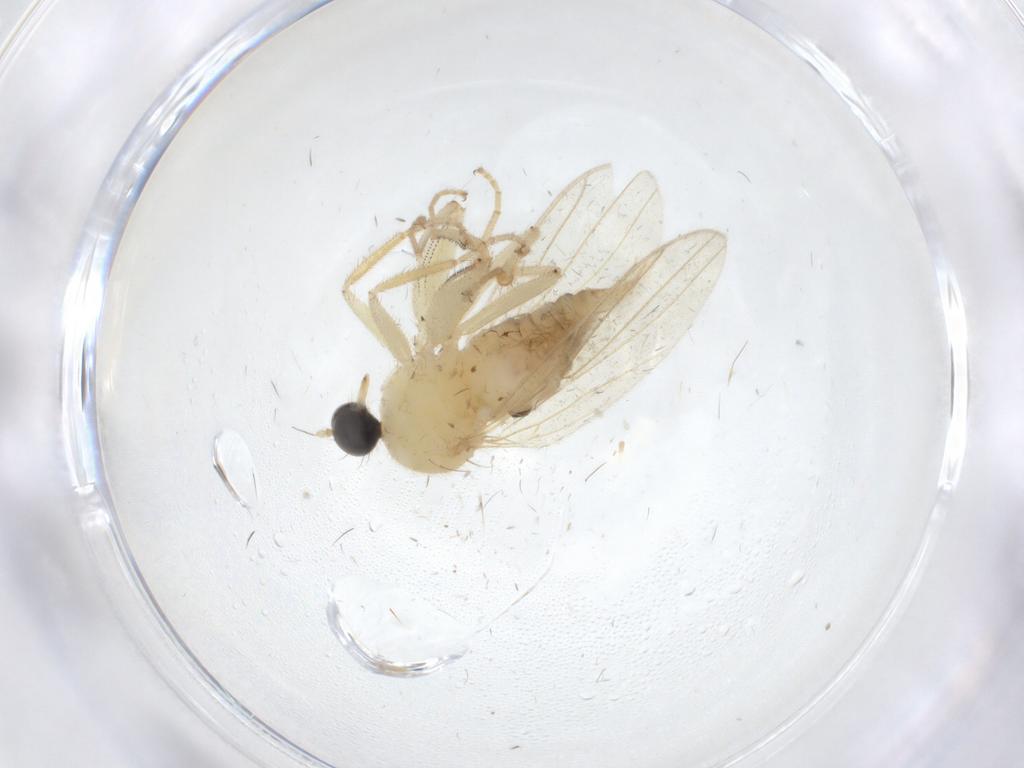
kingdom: Animalia
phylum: Arthropoda
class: Insecta
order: Diptera
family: Hybotidae
